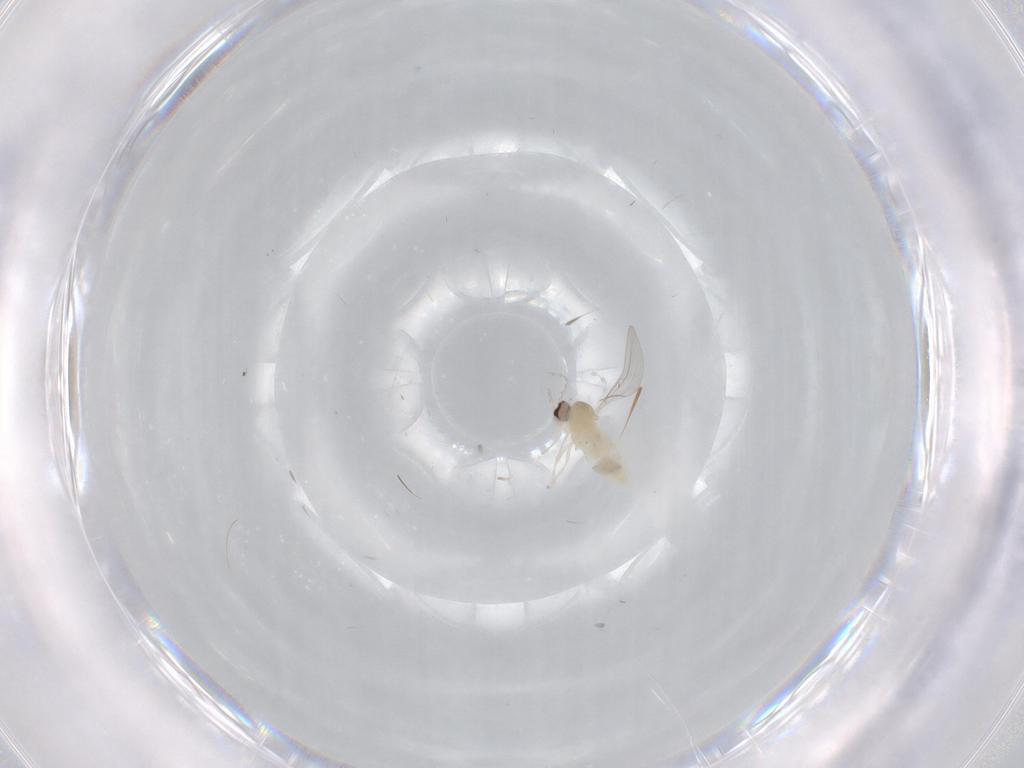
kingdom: Animalia
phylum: Arthropoda
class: Insecta
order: Diptera
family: Cecidomyiidae
